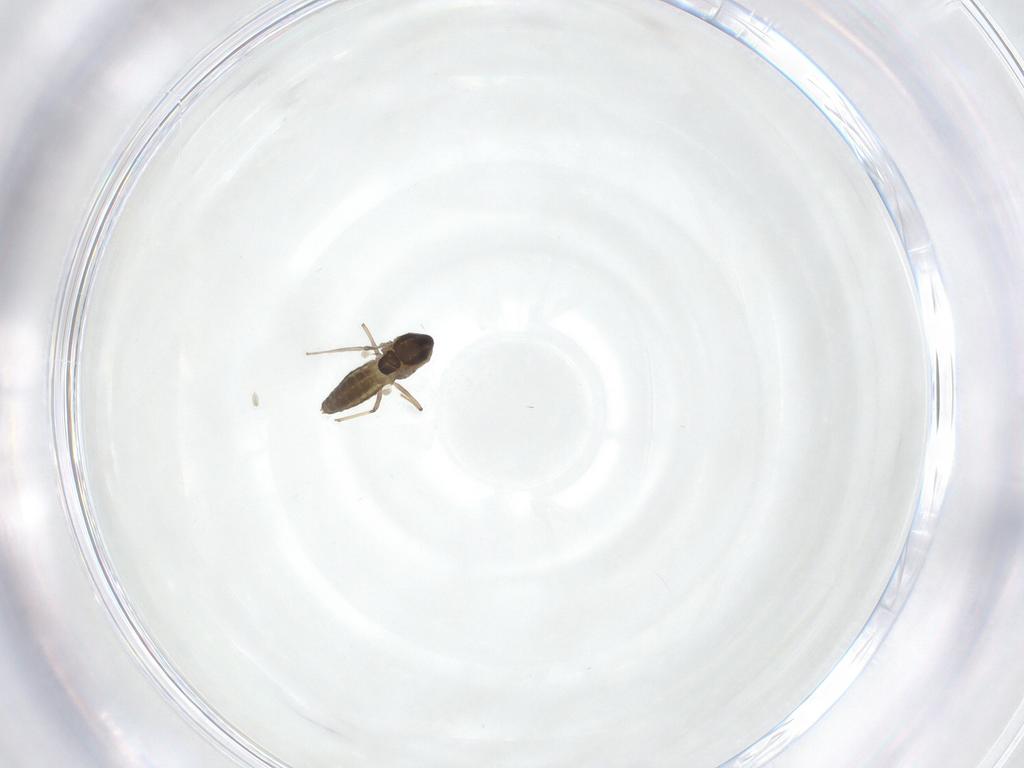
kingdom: Animalia
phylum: Arthropoda
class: Insecta
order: Diptera
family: Chironomidae
